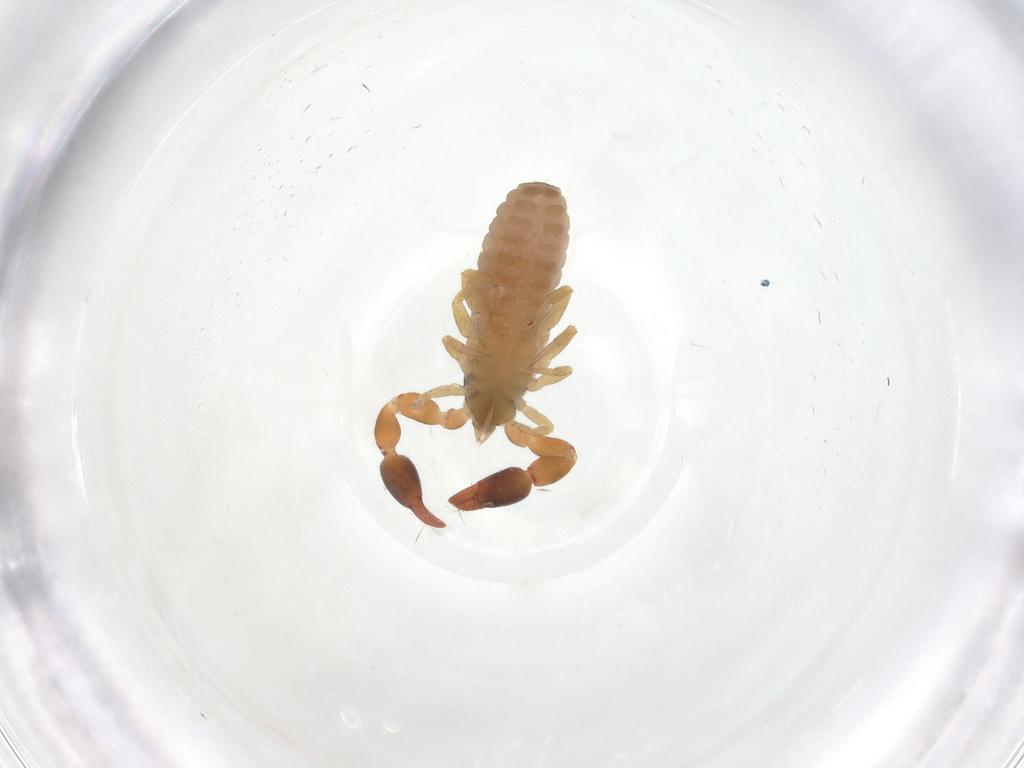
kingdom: Animalia
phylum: Arthropoda
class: Arachnida
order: Pseudoscorpiones
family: Chernetidae
